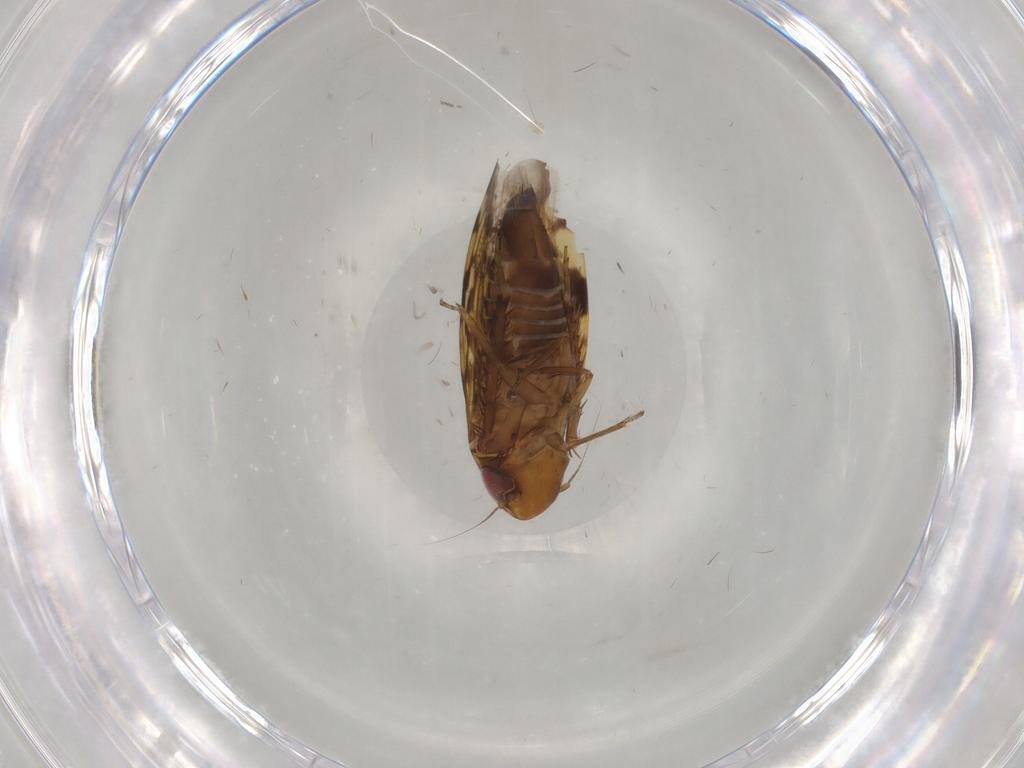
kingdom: Animalia
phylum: Arthropoda
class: Insecta
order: Hemiptera
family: Cicadellidae
